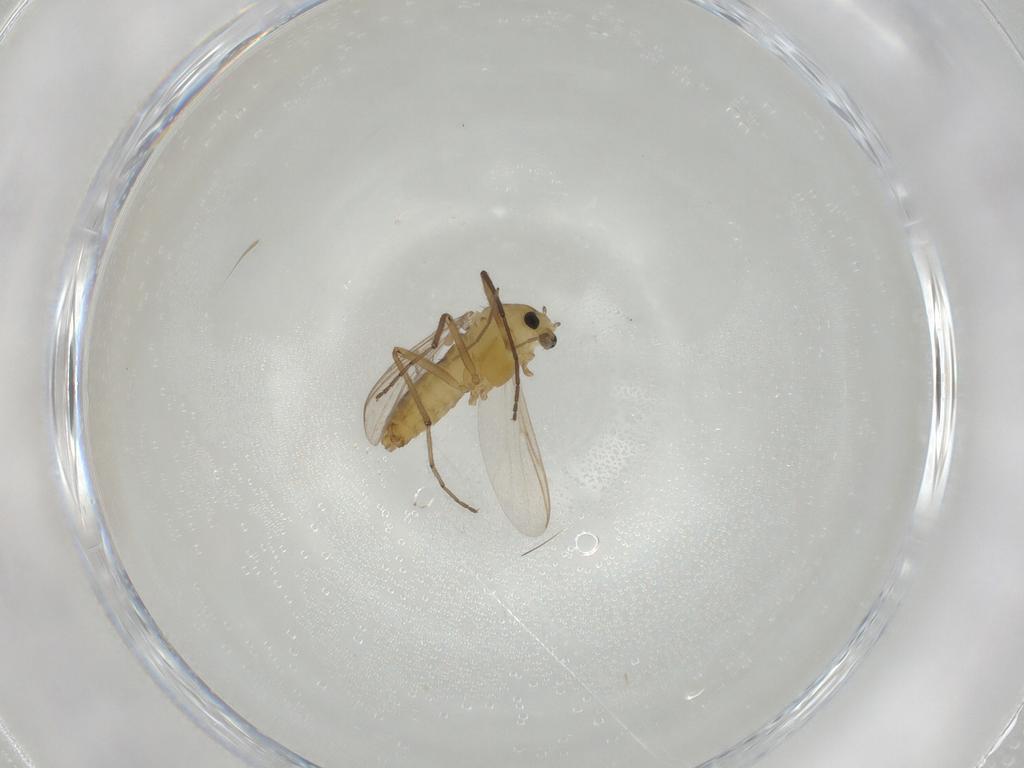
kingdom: Animalia
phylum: Arthropoda
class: Insecta
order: Diptera
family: Chironomidae
